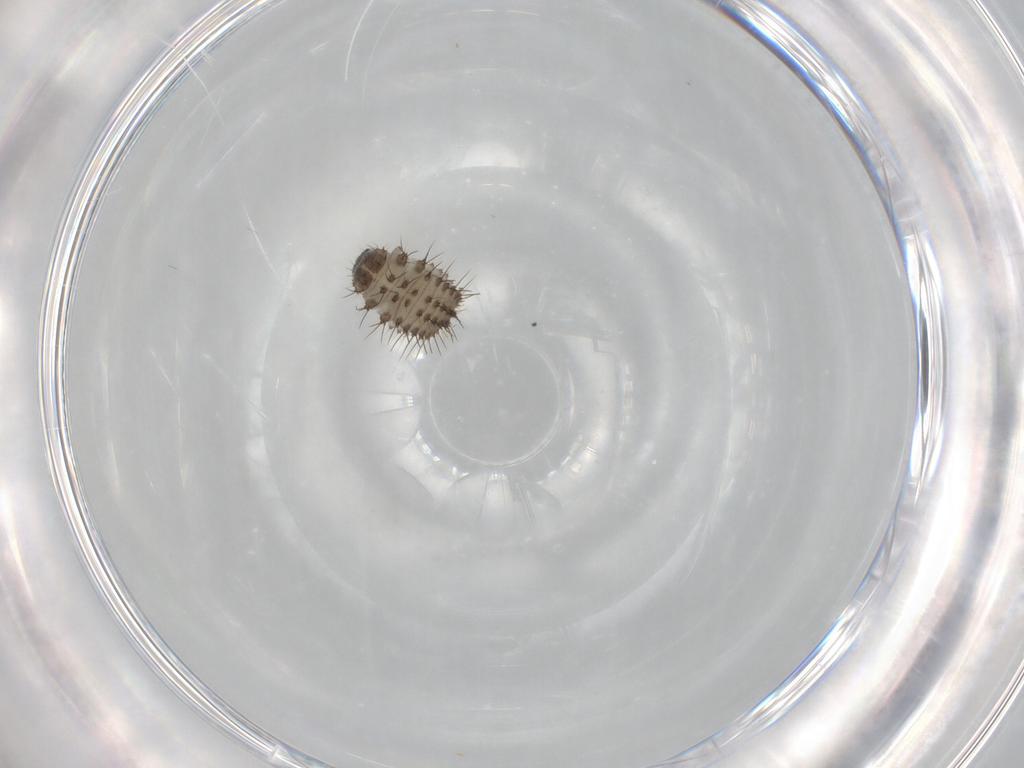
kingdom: Animalia
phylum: Arthropoda
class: Insecta
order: Coleoptera
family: Coccinellidae
